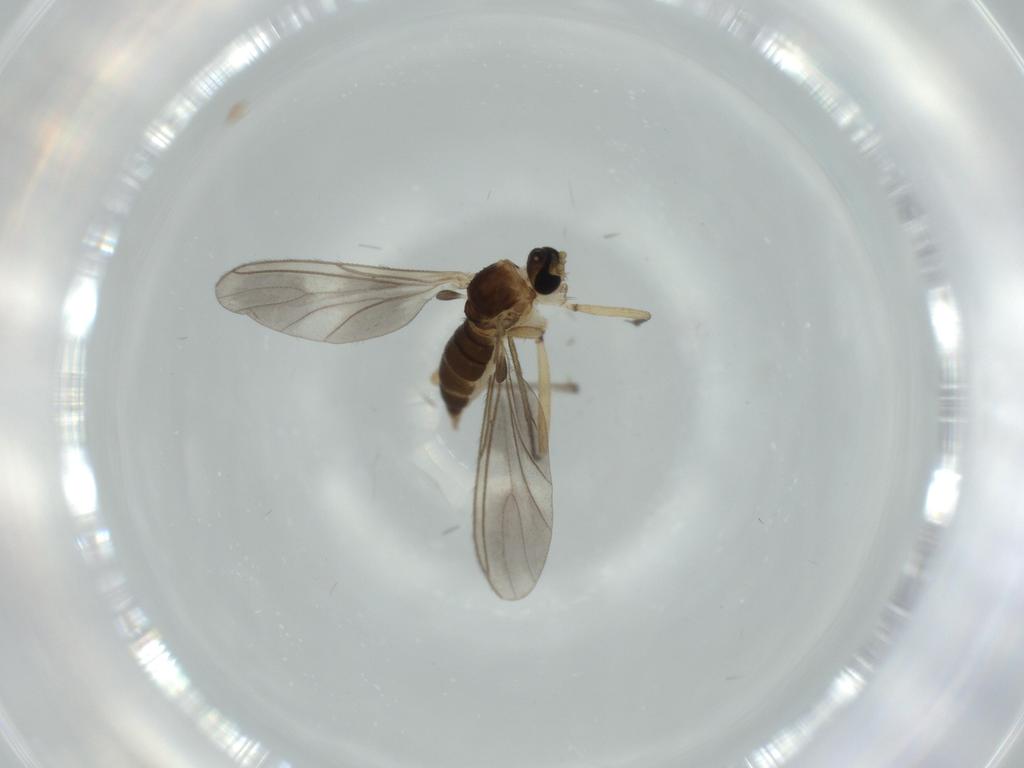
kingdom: Animalia
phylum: Arthropoda
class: Insecta
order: Diptera
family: Sciaridae
